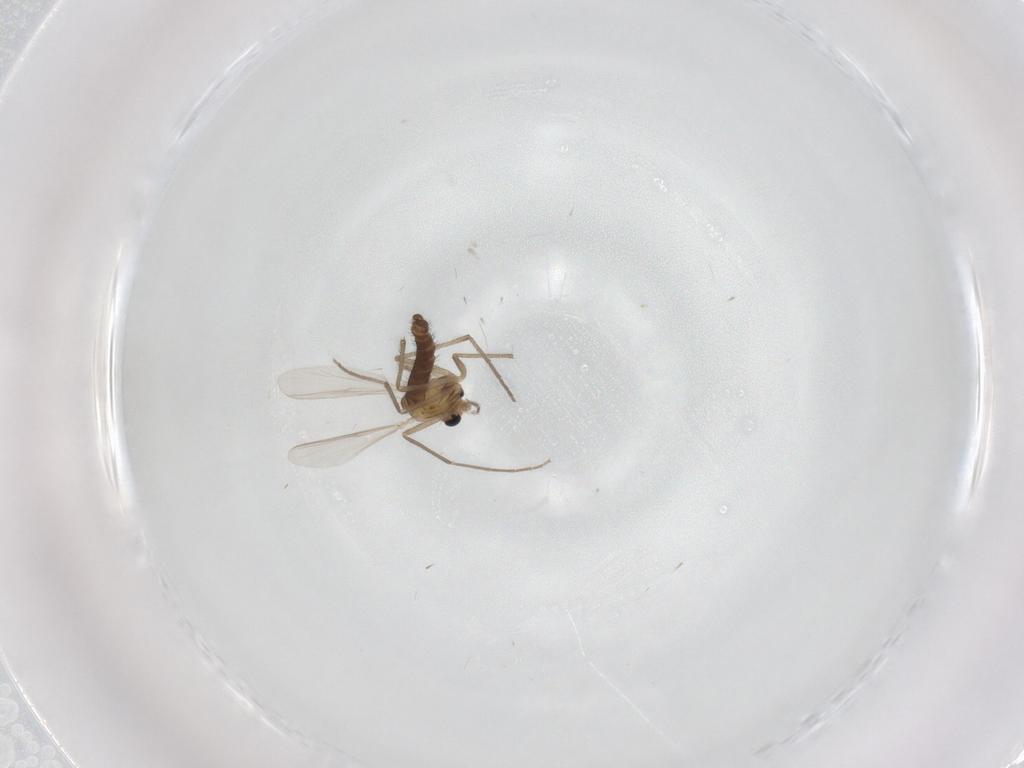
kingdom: Animalia
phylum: Arthropoda
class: Insecta
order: Diptera
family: Chironomidae
